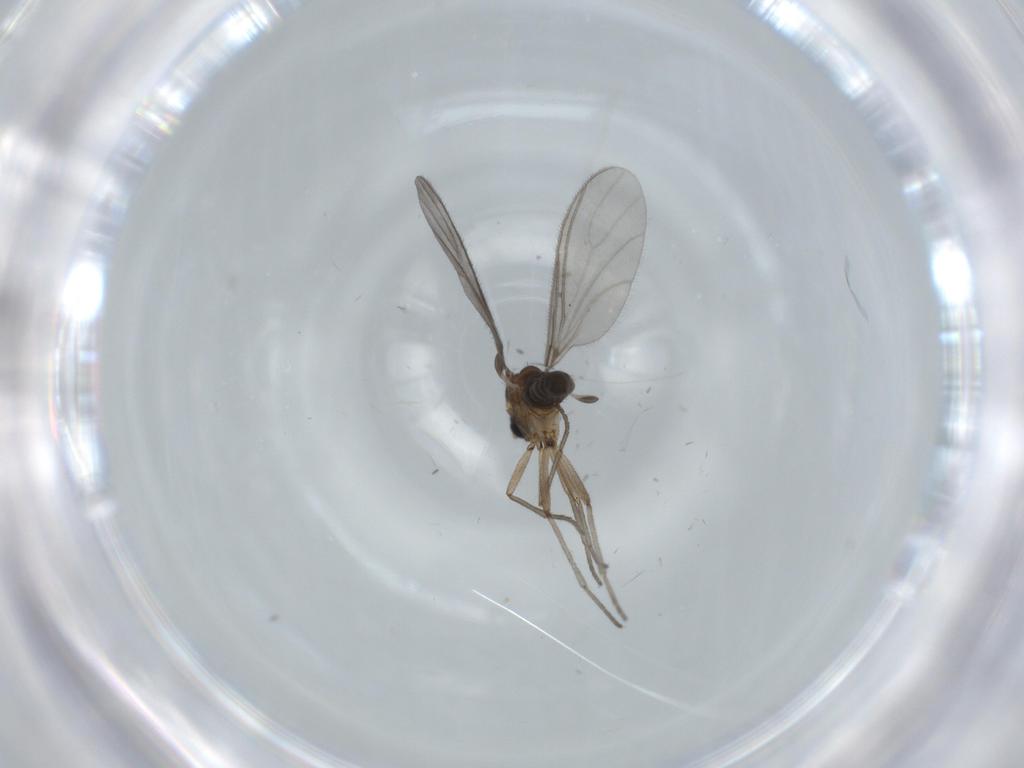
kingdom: Animalia
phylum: Arthropoda
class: Insecta
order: Diptera
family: Sciaridae
